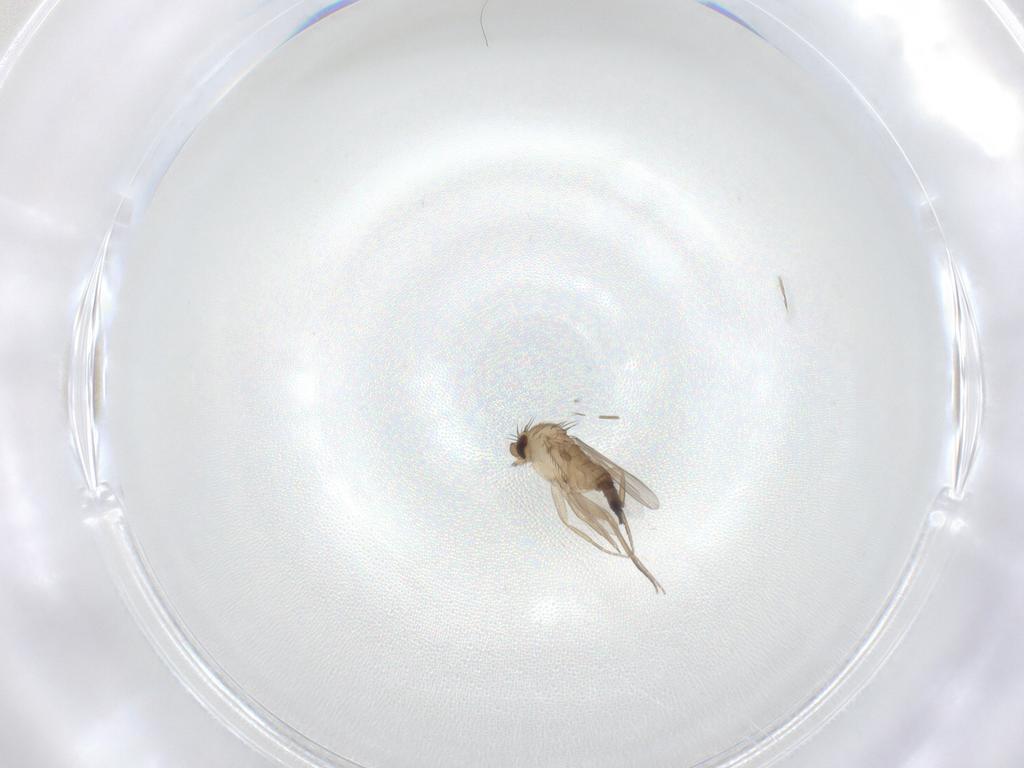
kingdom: Animalia
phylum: Arthropoda
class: Insecta
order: Diptera
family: Phoridae
